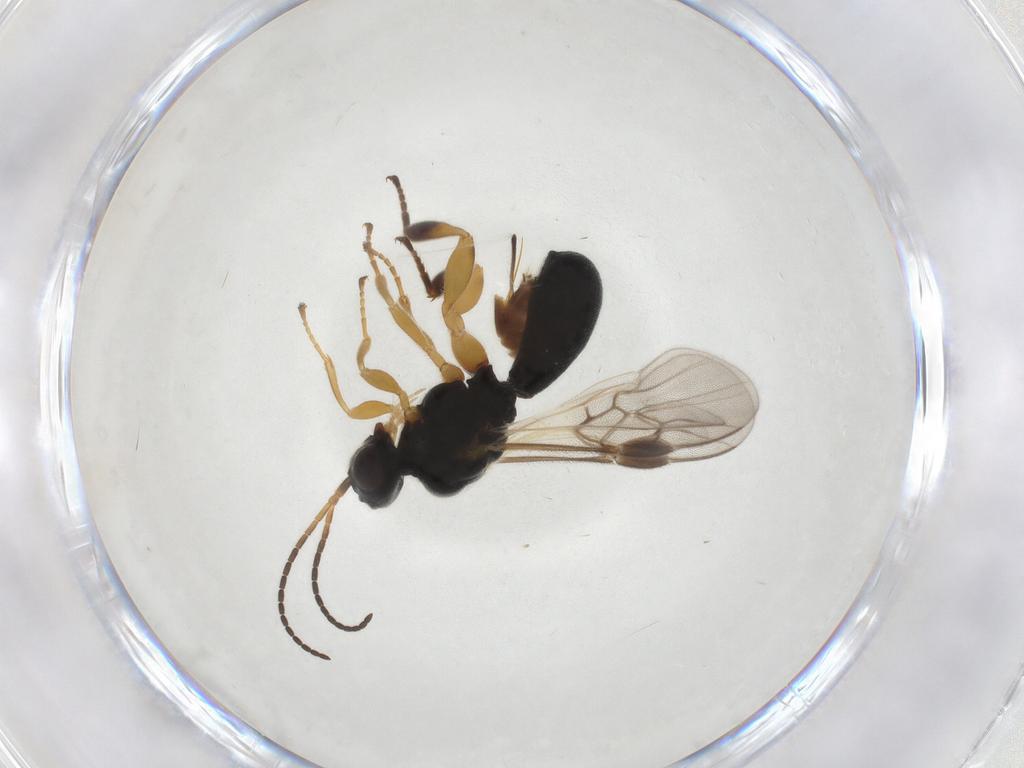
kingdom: Animalia
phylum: Arthropoda
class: Insecta
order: Hymenoptera
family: Braconidae
